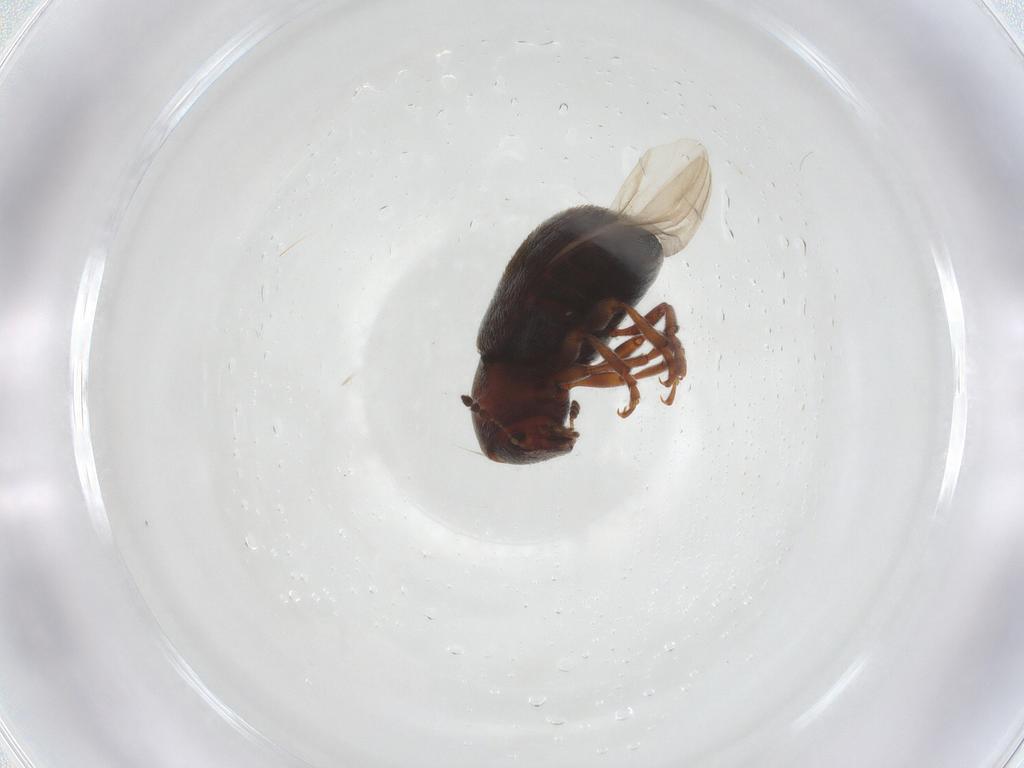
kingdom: Animalia
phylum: Arthropoda
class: Insecta
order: Coleoptera
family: Anthribidae
